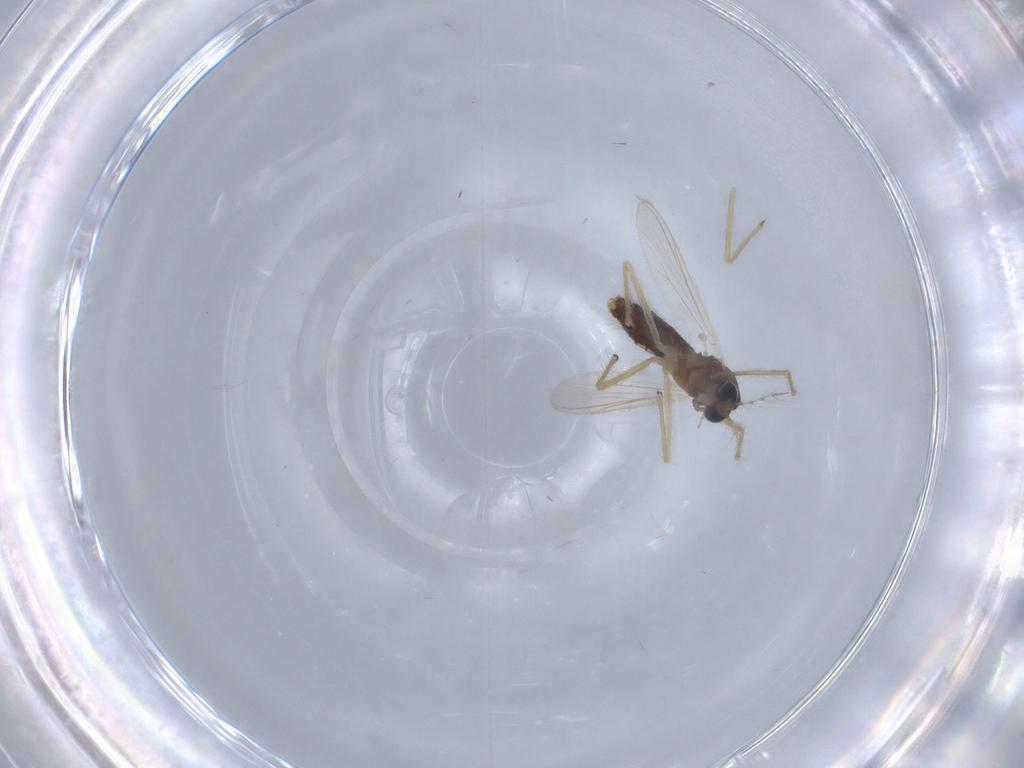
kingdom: Animalia
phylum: Arthropoda
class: Insecta
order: Diptera
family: Chironomidae
